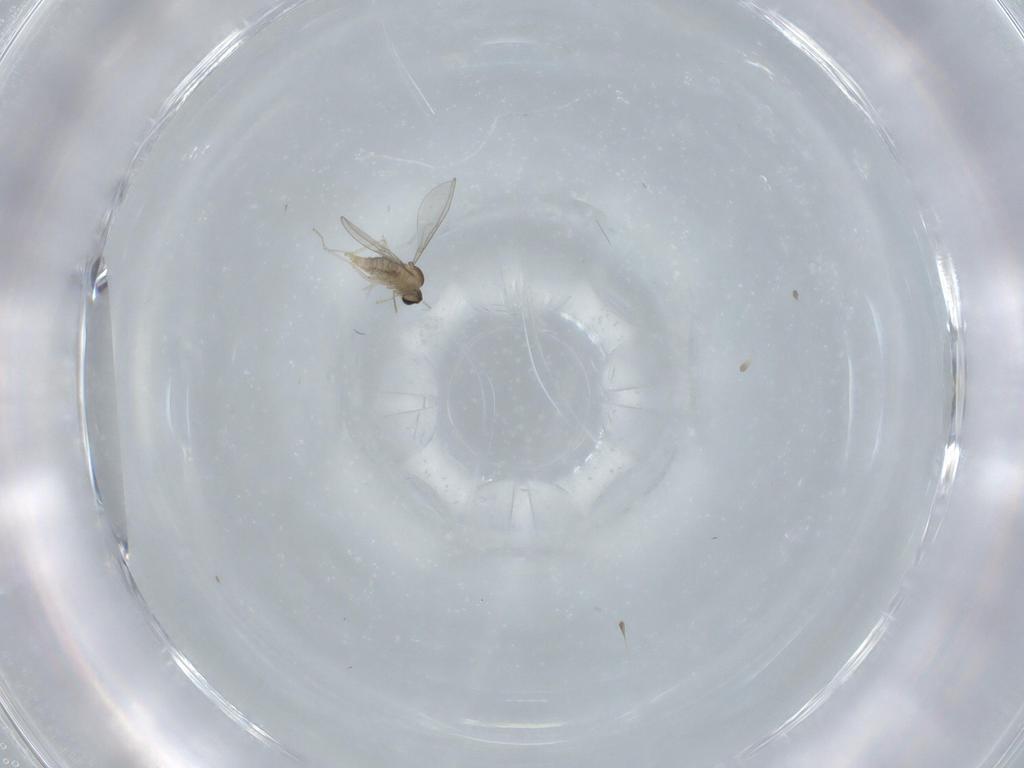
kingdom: Animalia
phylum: Arthropoda
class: Insecta
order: Diptera
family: Cecidomyiidae
